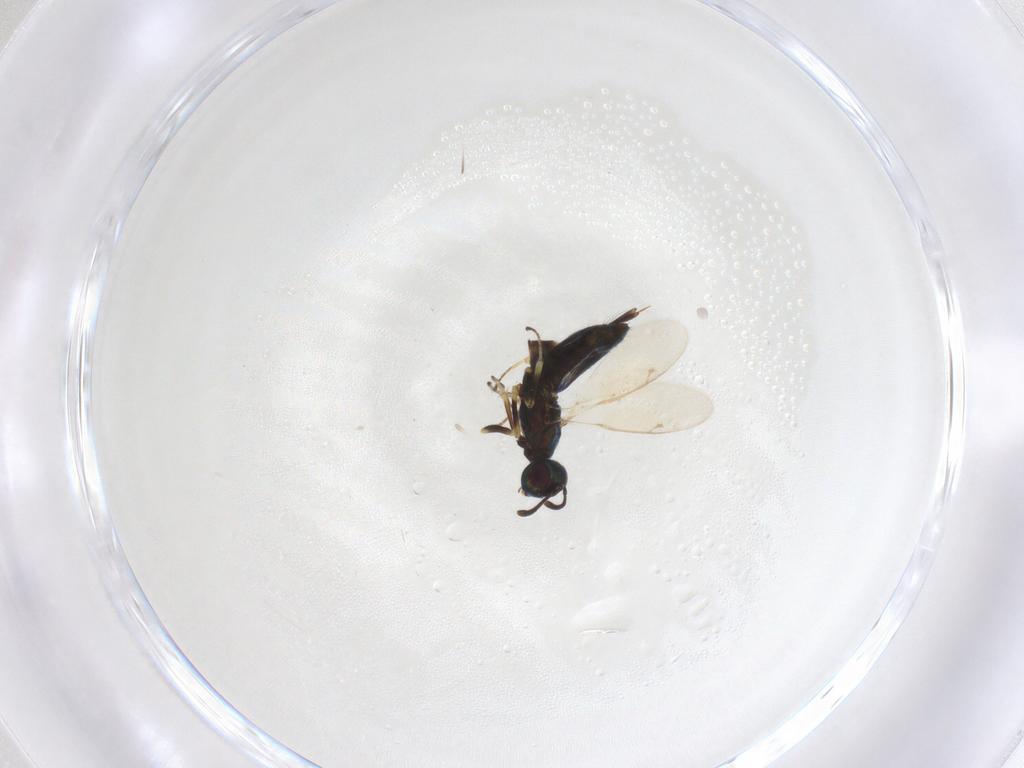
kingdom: Animalia
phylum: Arthropoda
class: Insecta
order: Hymenoptera
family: Eupelmidae
